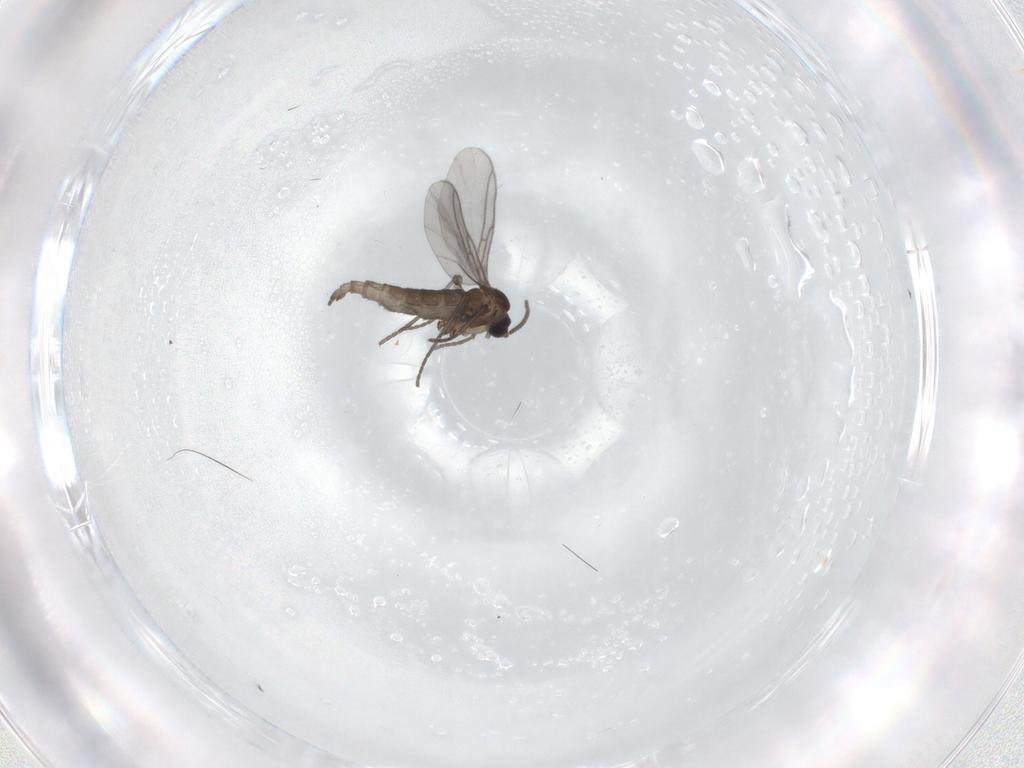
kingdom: Animalia
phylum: Arthropoda
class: Insecta
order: Diptera
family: Sciaridae
